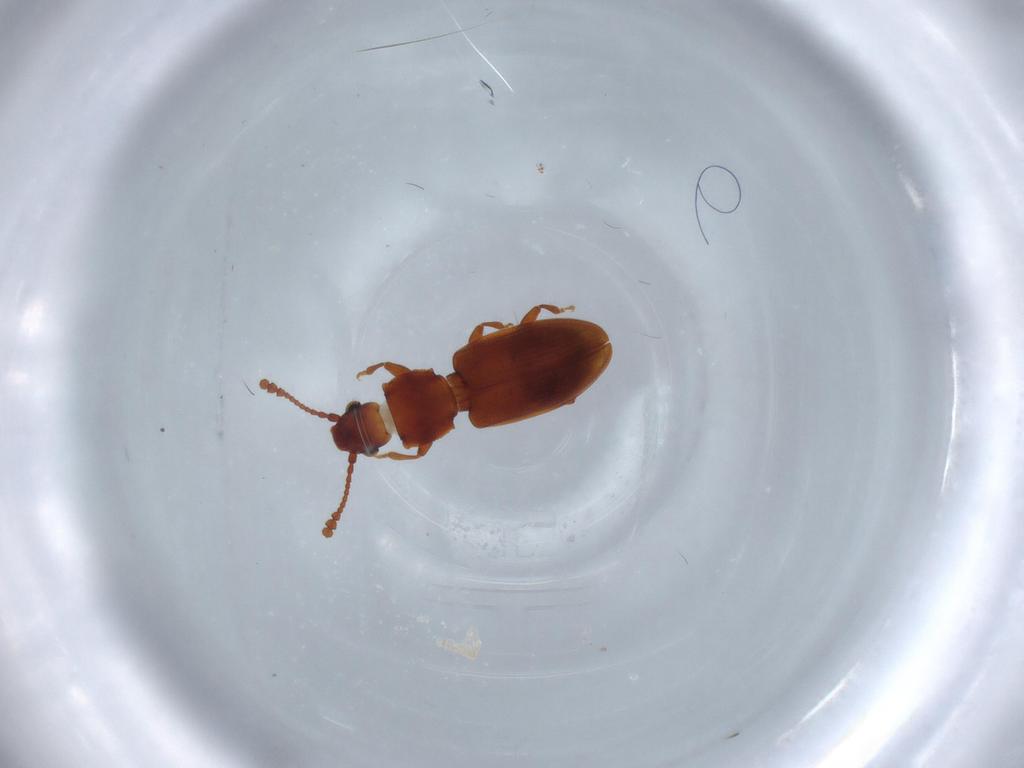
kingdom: Animalia
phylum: Arthropoda
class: Insecta
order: Coleoptera
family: Silvanidae
